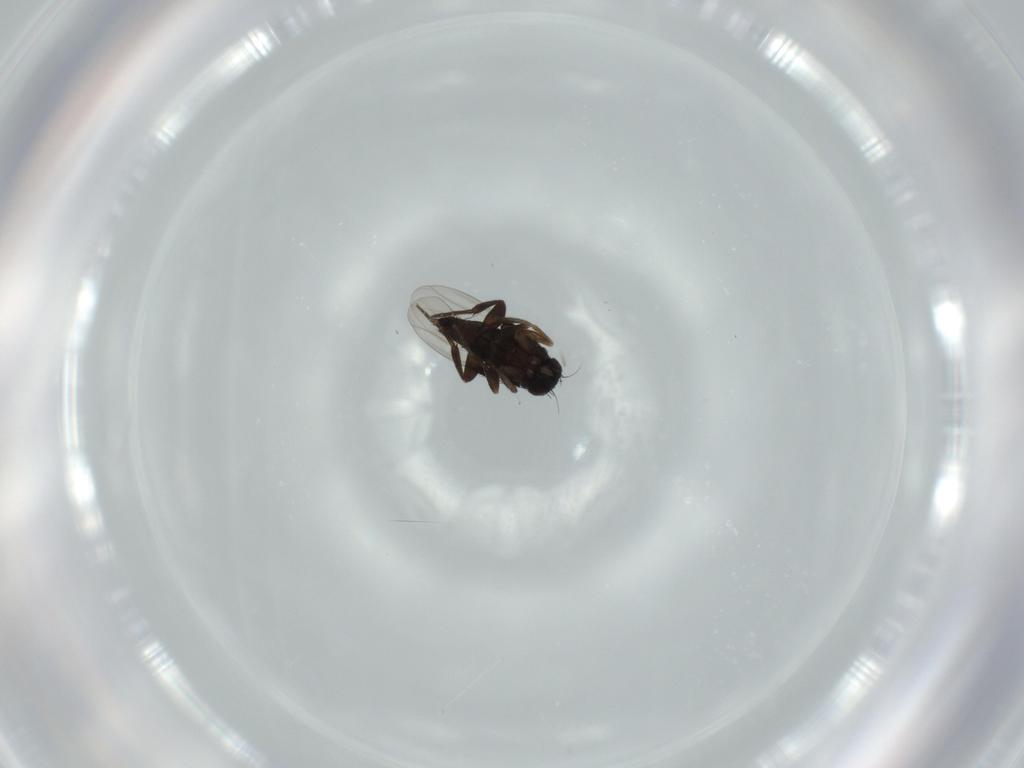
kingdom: Animalia
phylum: Arthropoda
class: Insecta
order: Diptera
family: Phoridae
